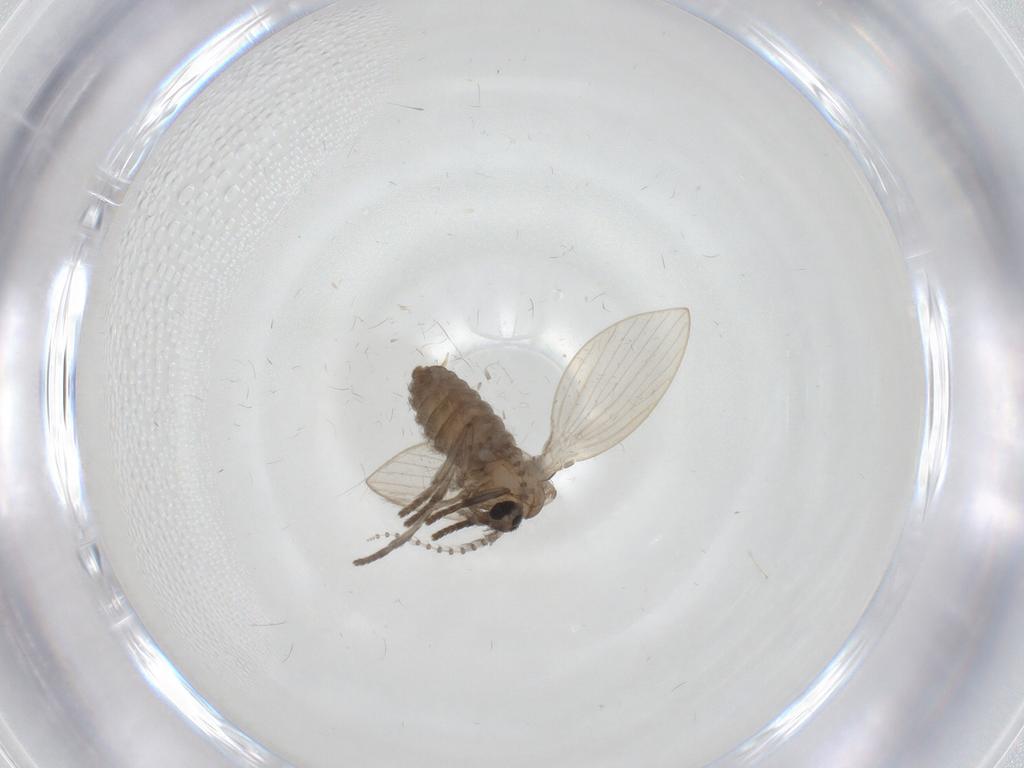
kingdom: Animalia
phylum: Arthropoda
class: Insecta
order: Diptera
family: Psychodidae
